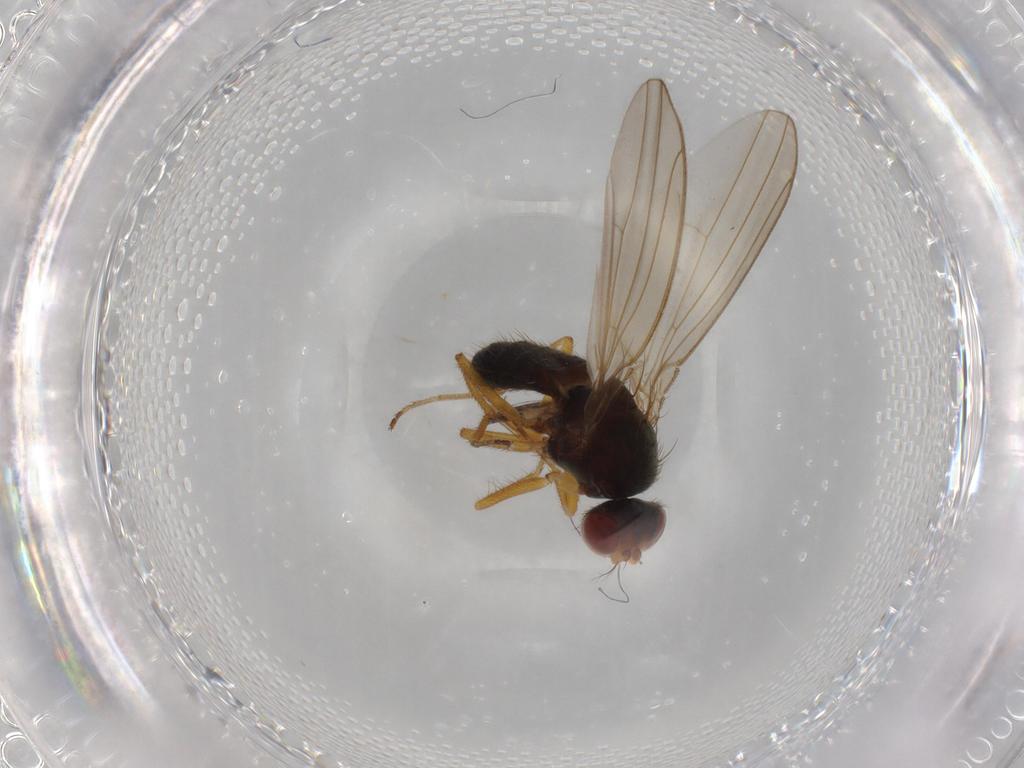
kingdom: Animalia
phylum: Arthropoda
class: Insecta
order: Diptera
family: Drosophilidae
